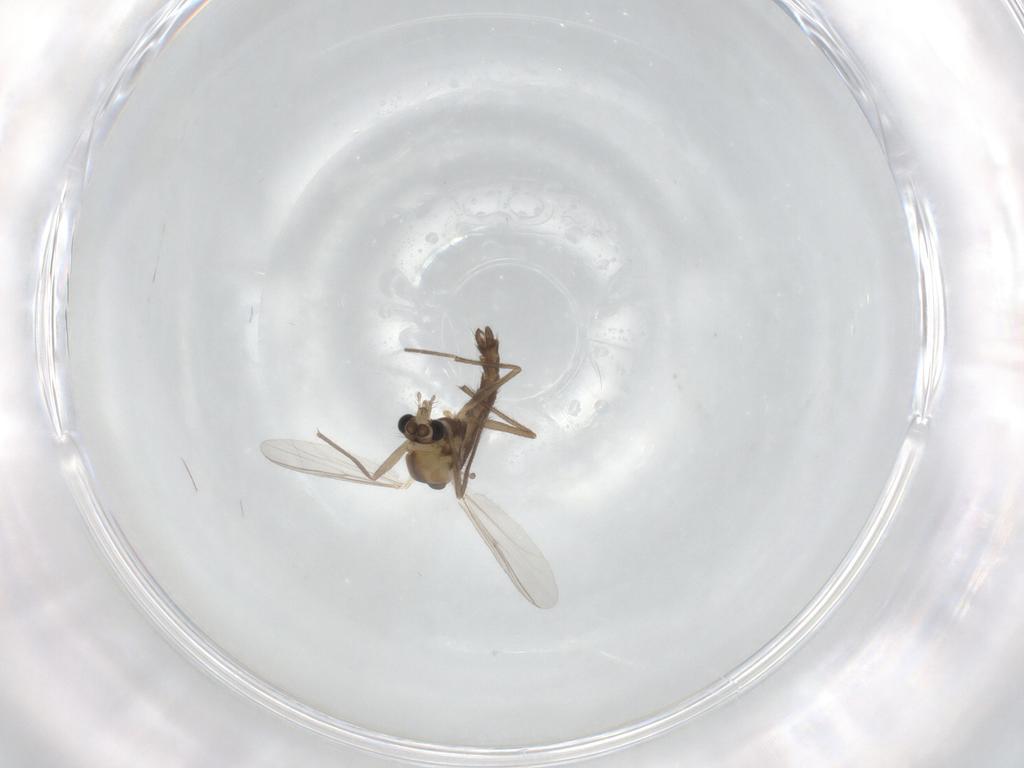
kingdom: Animalia
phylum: Arthropoda
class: Insecta
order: Diptera
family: Chironomidae
